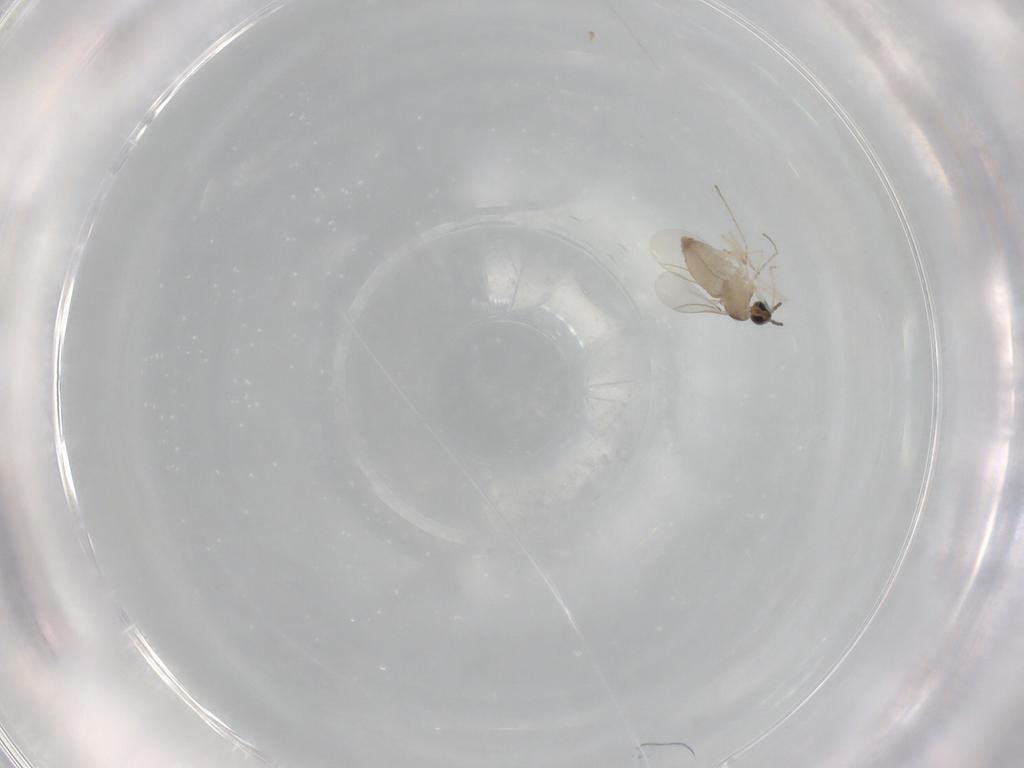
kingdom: Animalia
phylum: Arthropoda
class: Insecta
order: Diptera
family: Cecidomyiidae
